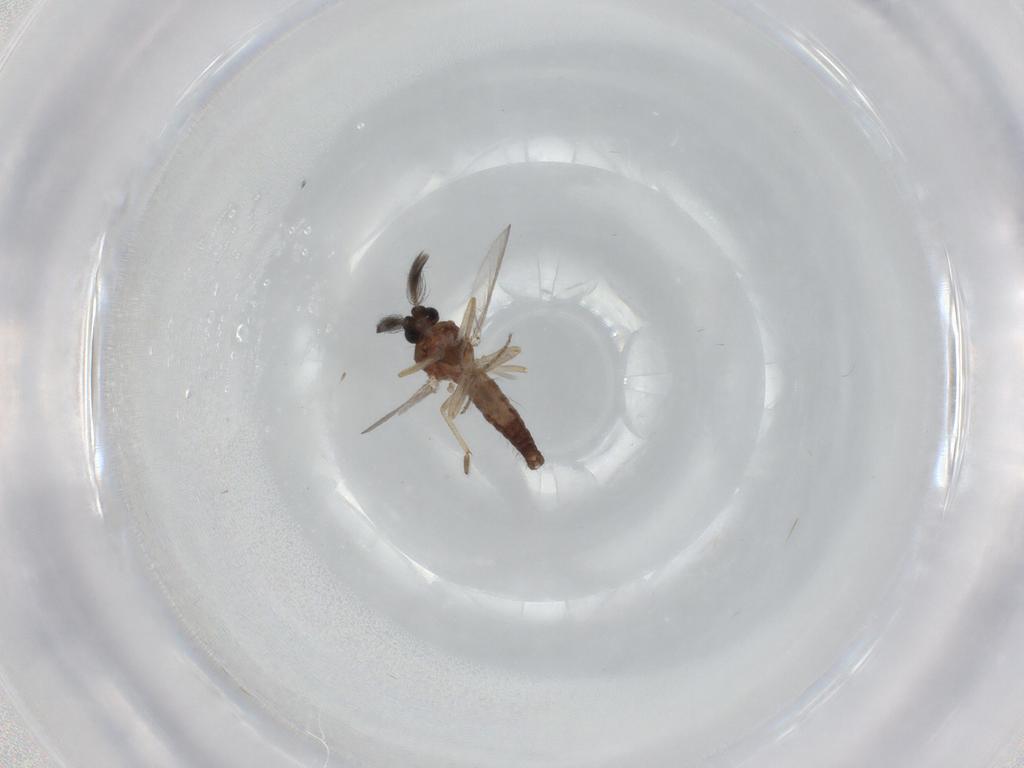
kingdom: Animalia
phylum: Arthropoda
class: Insecta
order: Diptera
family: Ceratopogonidae
